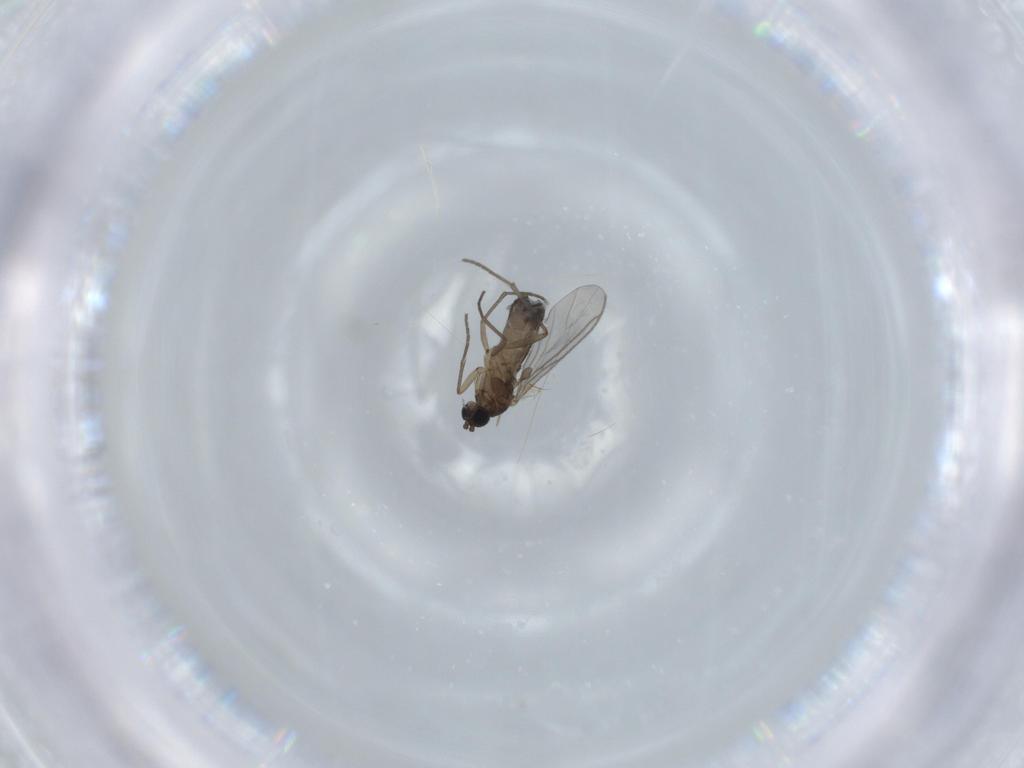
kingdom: Animalia
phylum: Arthropoda
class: Insecta
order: Diptera
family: Sciaridae
